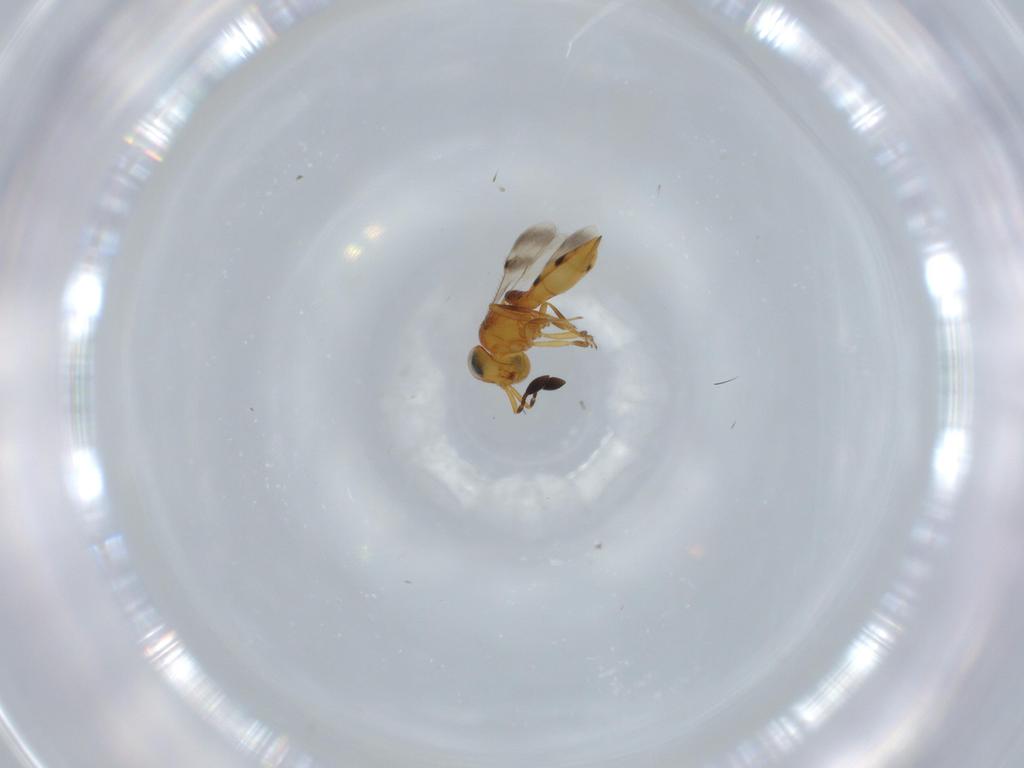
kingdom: Animalia
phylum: Arthropoda
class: Insecta
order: Hymenoptera
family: Scelionidae
